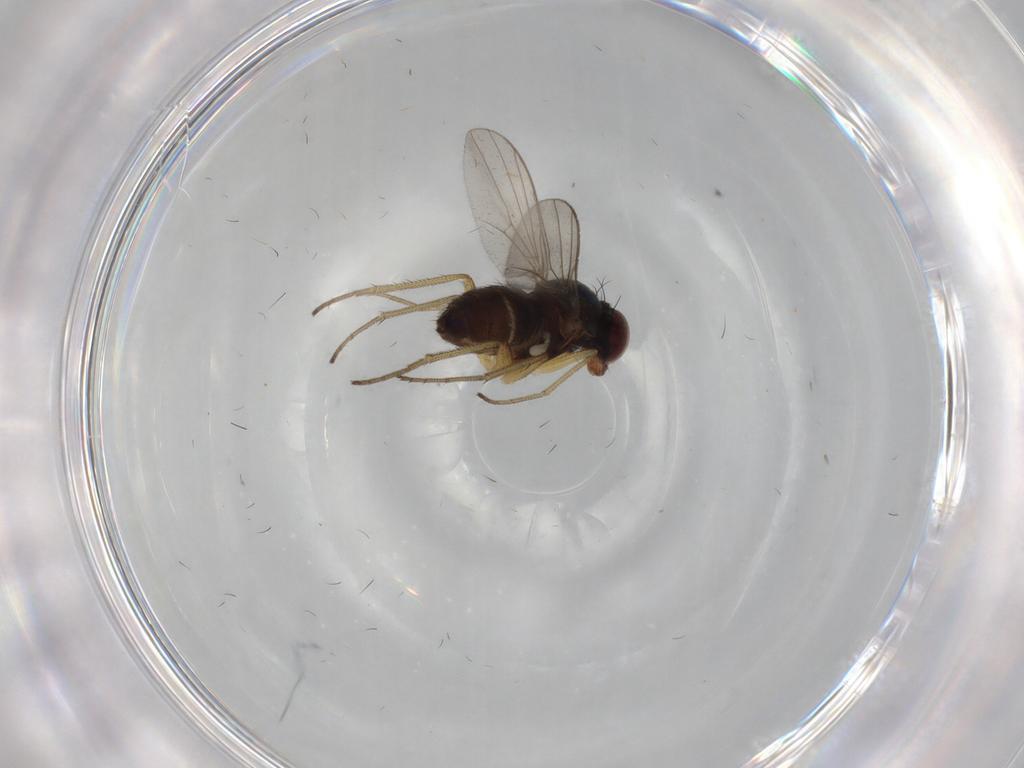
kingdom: Animalia
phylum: Arthropoda
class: Insecta
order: Diptera
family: Dolichopodidae
